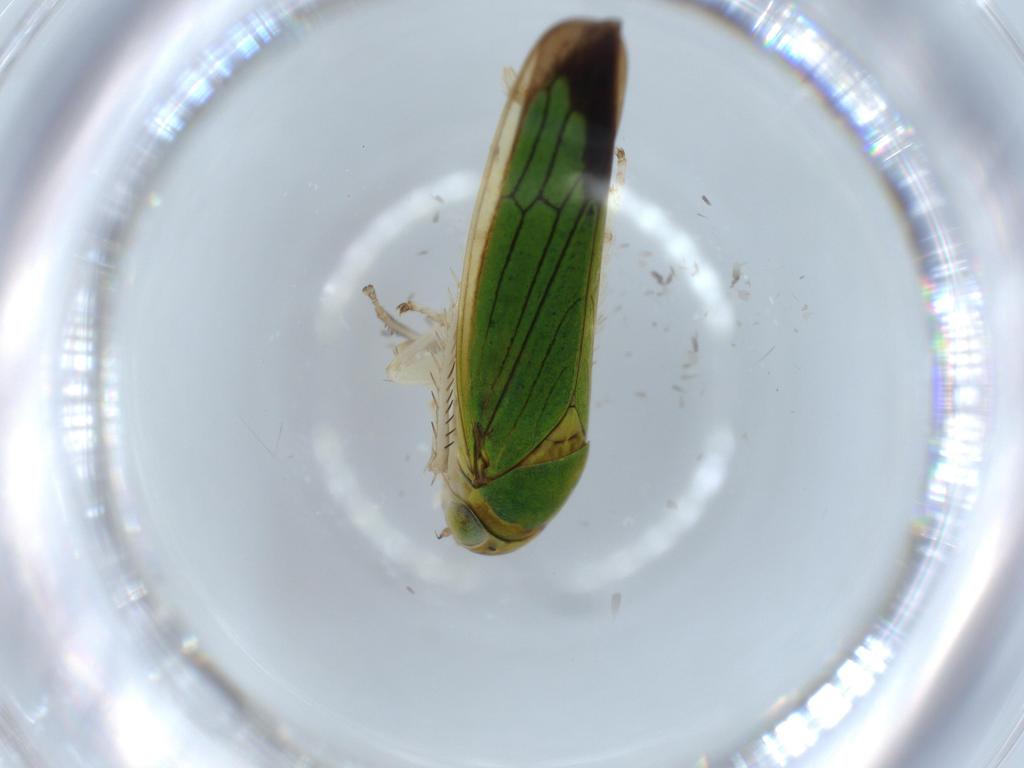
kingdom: Animalia
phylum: Arthropoda
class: Insecta
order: Hemiptera
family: Cicadellidae
